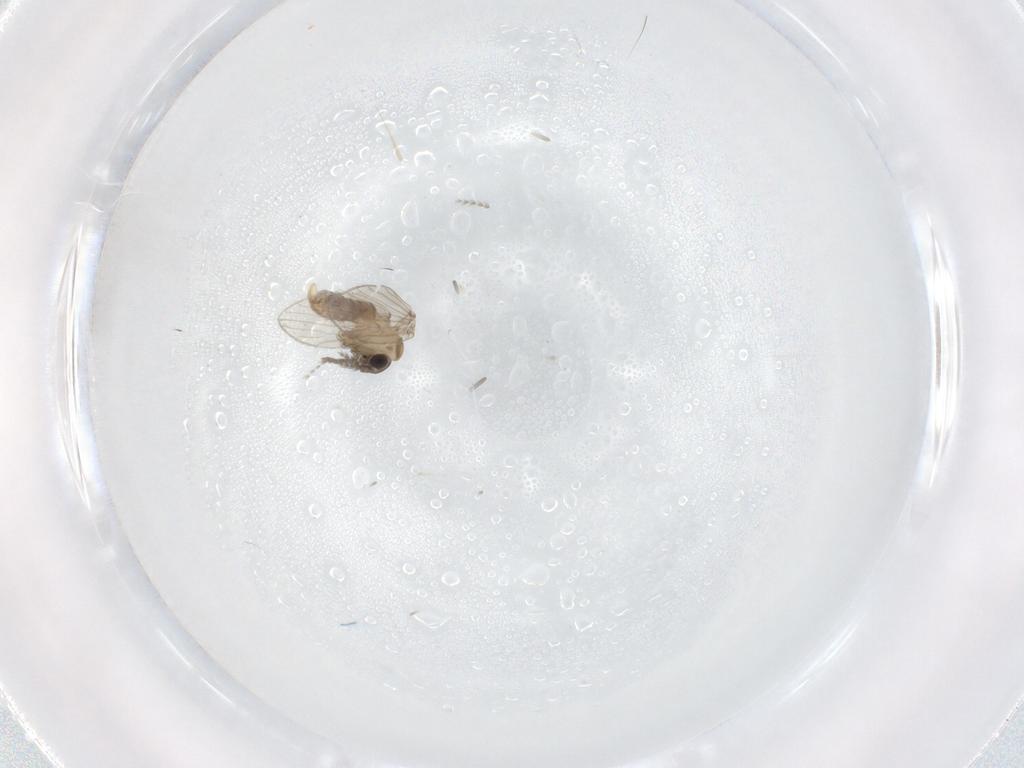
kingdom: Animalia
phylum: Arthropoda
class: Insecta
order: Diptera
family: Psychodidae
